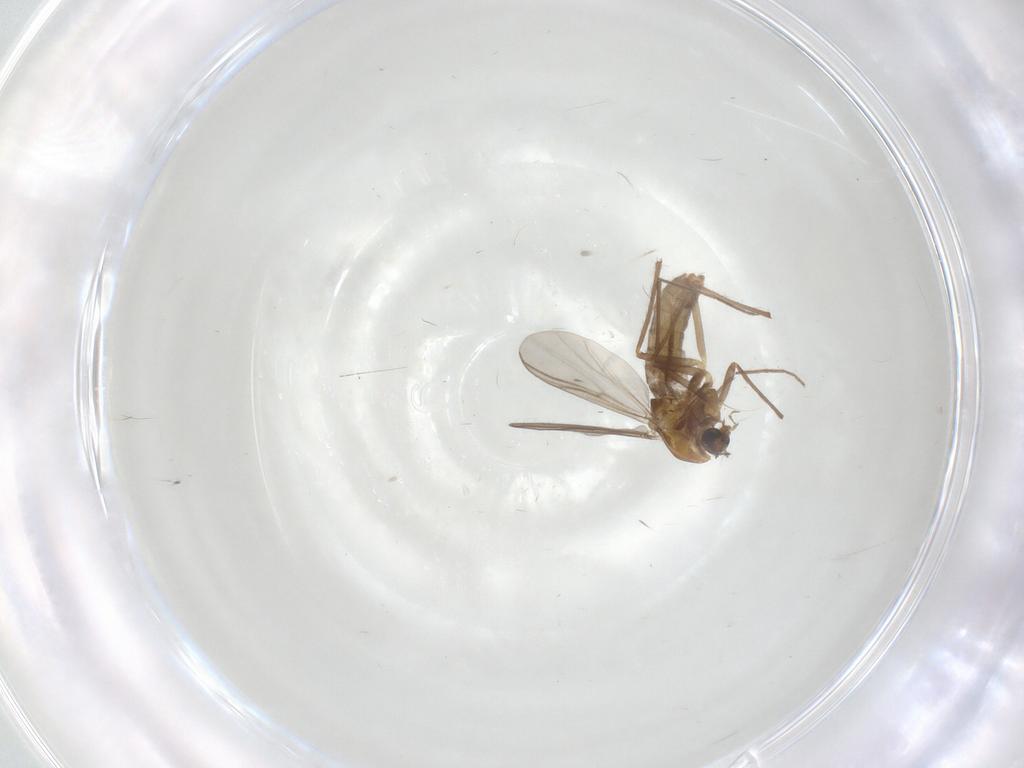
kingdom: Animalia
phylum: Arthropoda
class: Insecta
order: Diptera
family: Chironomidae
